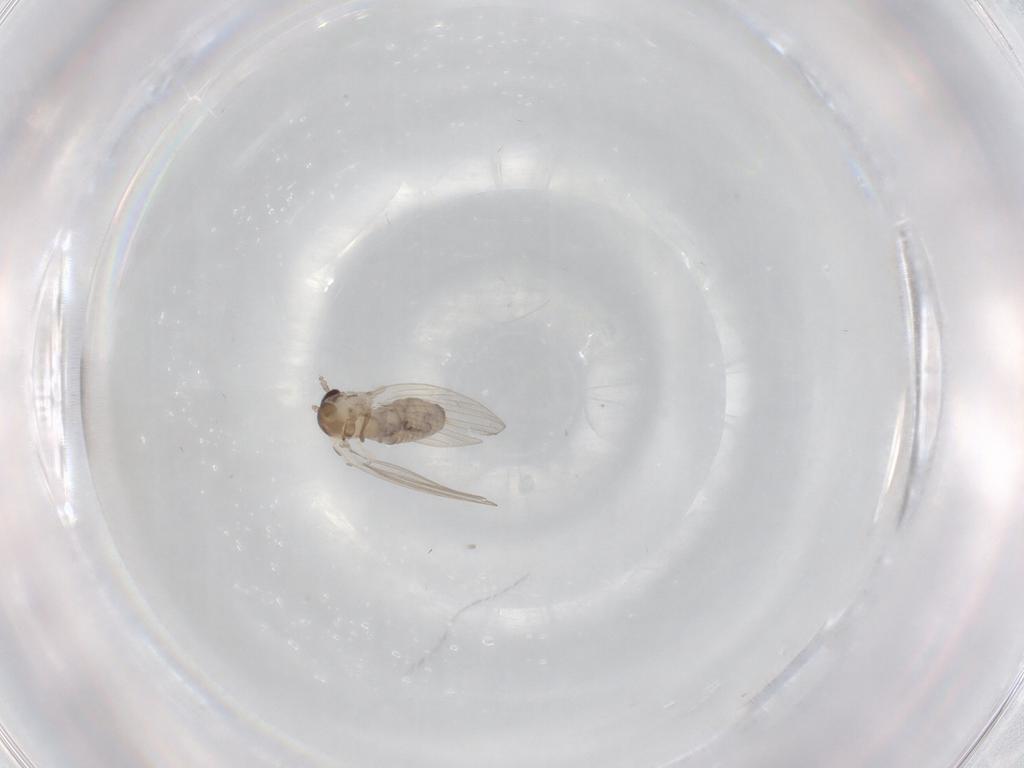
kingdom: Animalia
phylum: Arthropoda
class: Insecta
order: Diptera
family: Psychodidae
